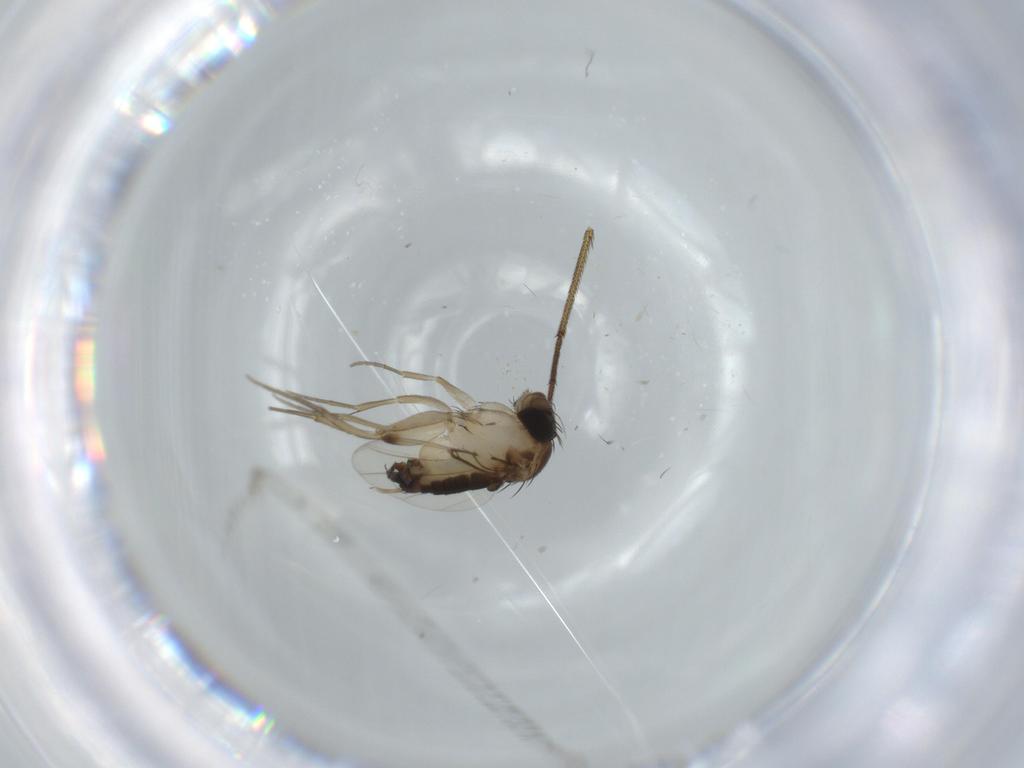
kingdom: Animalia
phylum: Arthropoda
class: Insecta
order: Diptera
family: Phoridae
